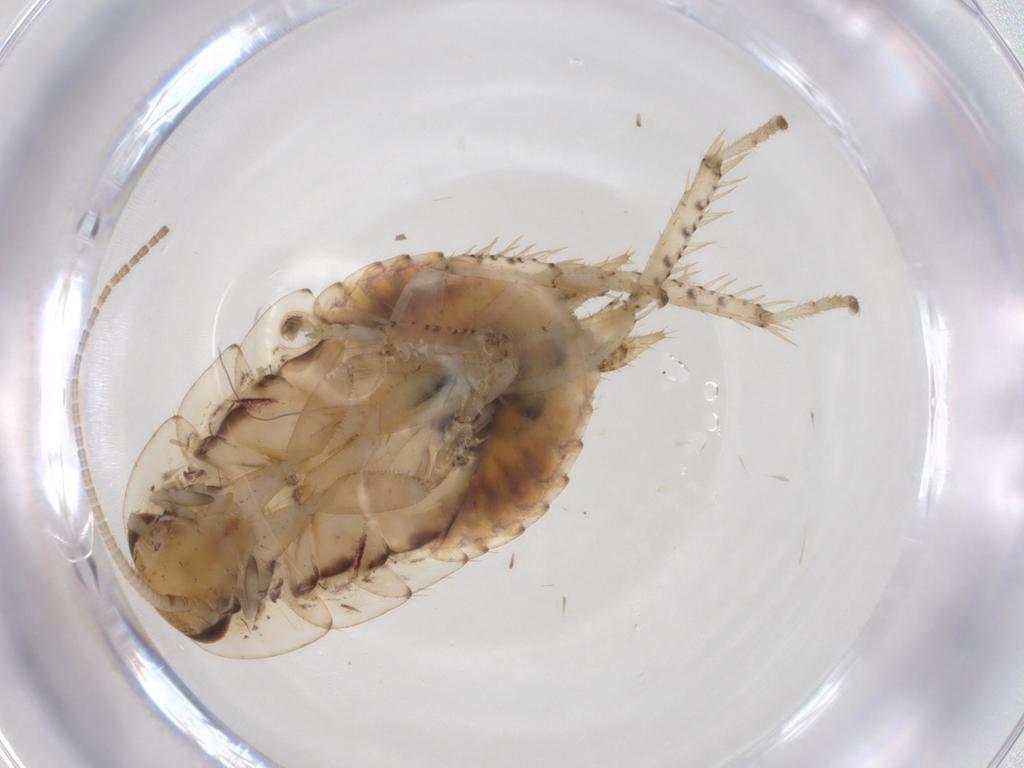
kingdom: Animalia
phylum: Arthropoda
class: Insecta
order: Blattodea
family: Blaberidae
